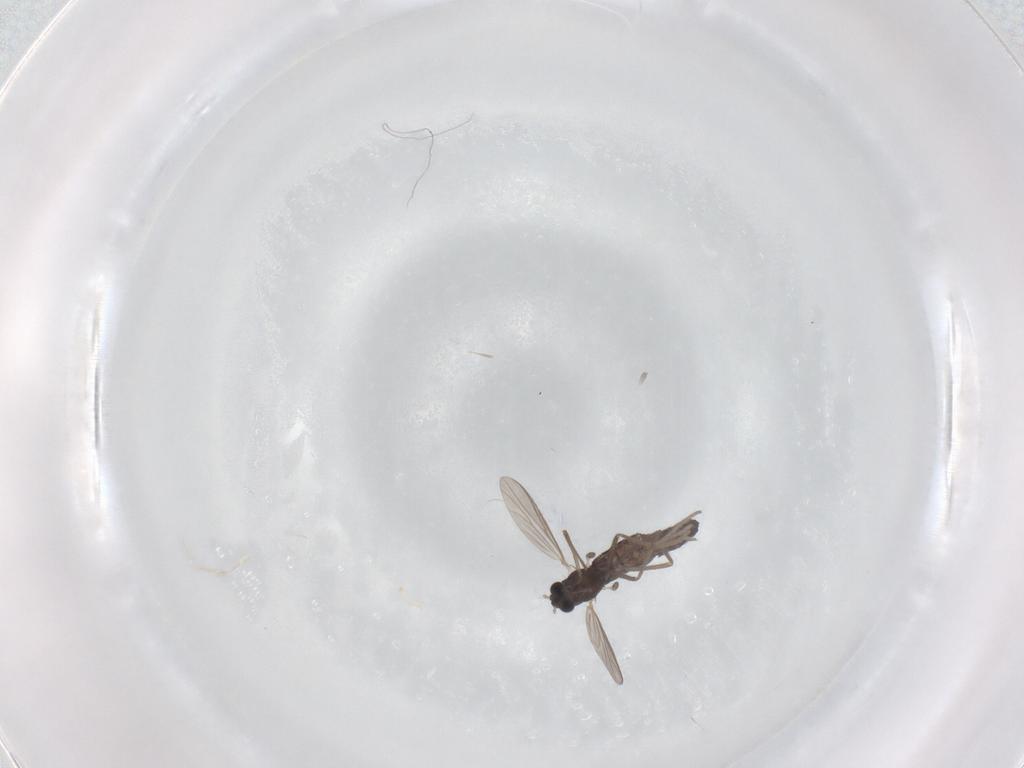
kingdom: Animalia
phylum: Arthropoda
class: Insecta
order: Diptera
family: Chironomidae
